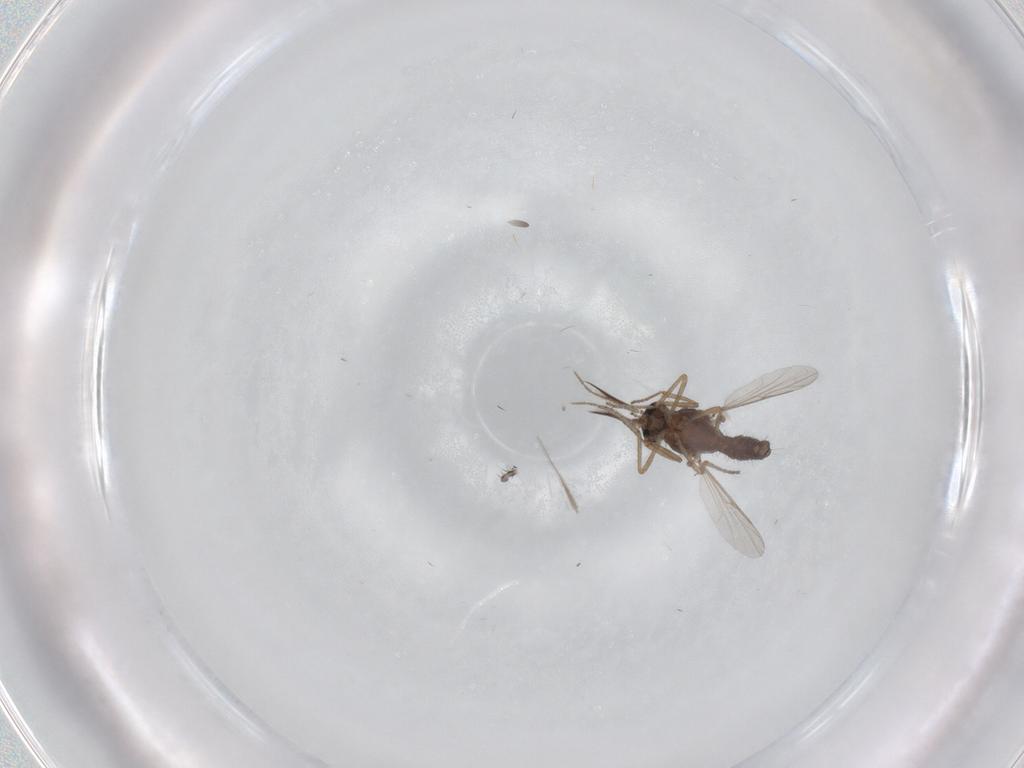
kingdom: Animalia
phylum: Arthropoda
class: Insecta
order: Diptera
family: Ceratopogonidae
